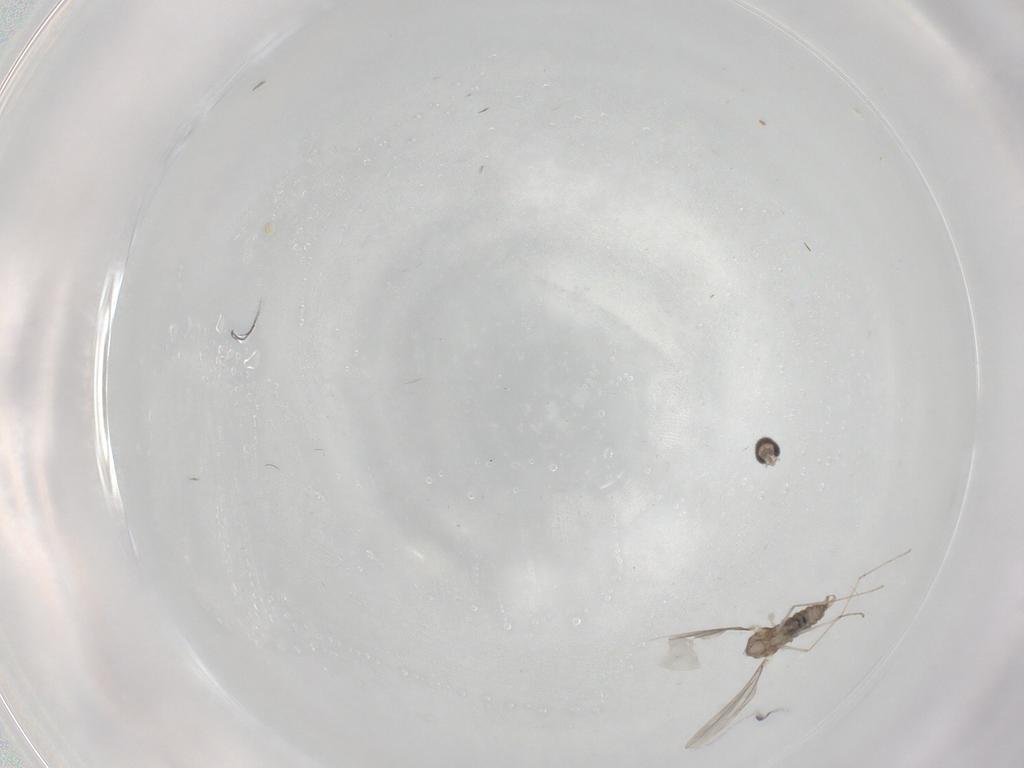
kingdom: Animalia
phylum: Arthropoda
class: Insecta
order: Diptera
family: Cecidomyiidae
